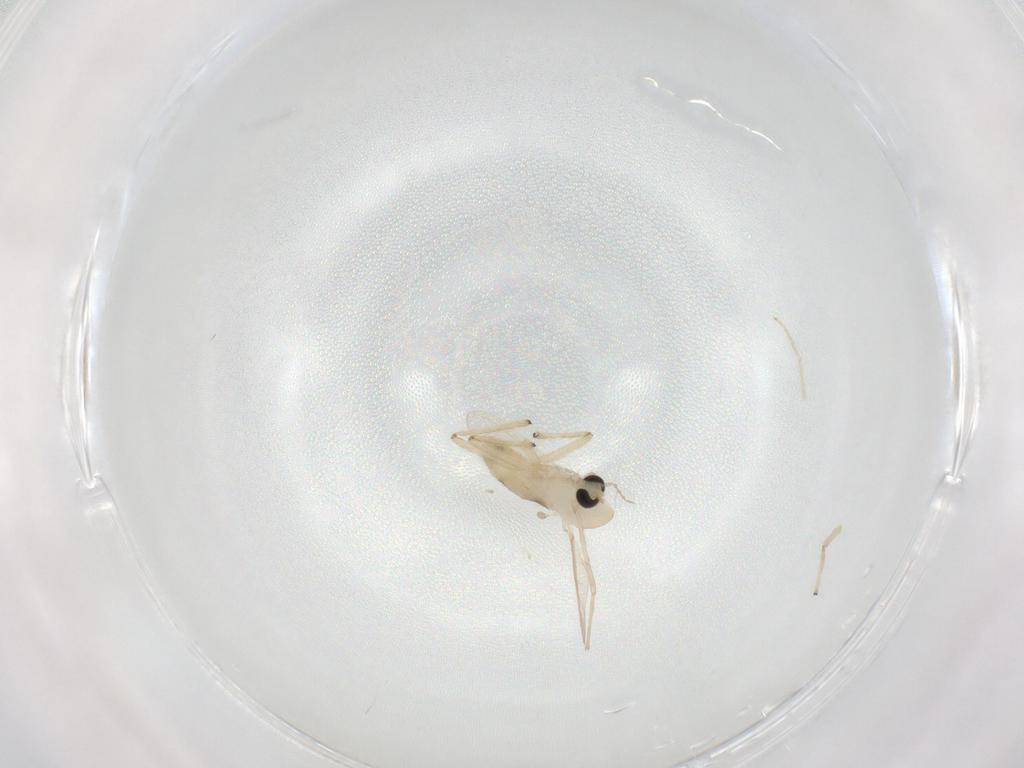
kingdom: Animalia
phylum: Arthropoda
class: Insecta
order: Diptera
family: Chironomidae
